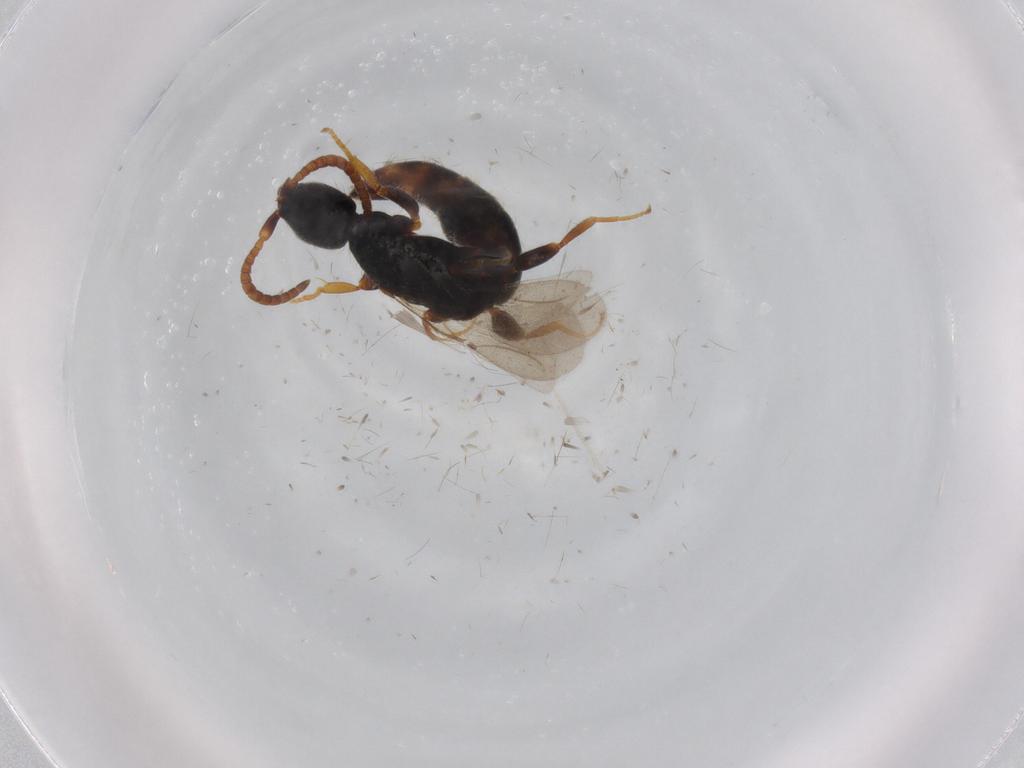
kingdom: Animalia
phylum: Arthropoda
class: Insecta
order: Hymenoptera
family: Bethylidae
